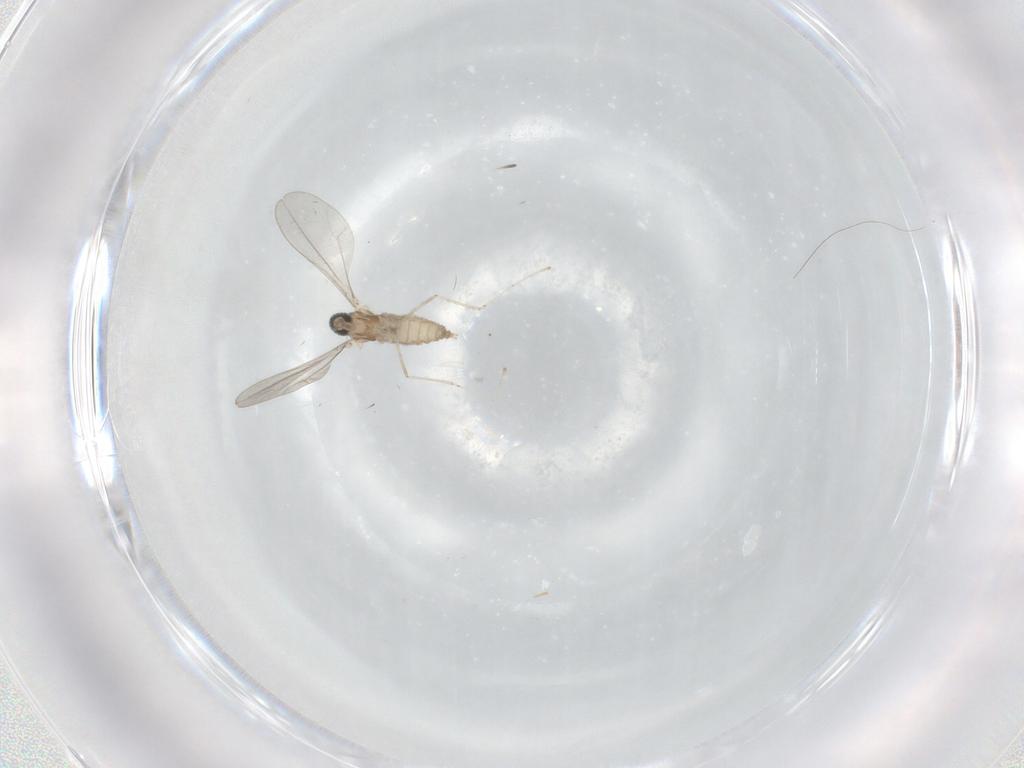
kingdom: Animalia
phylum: Arthropoda
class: Insecta
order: Diptera
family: Cecidomyiidae
